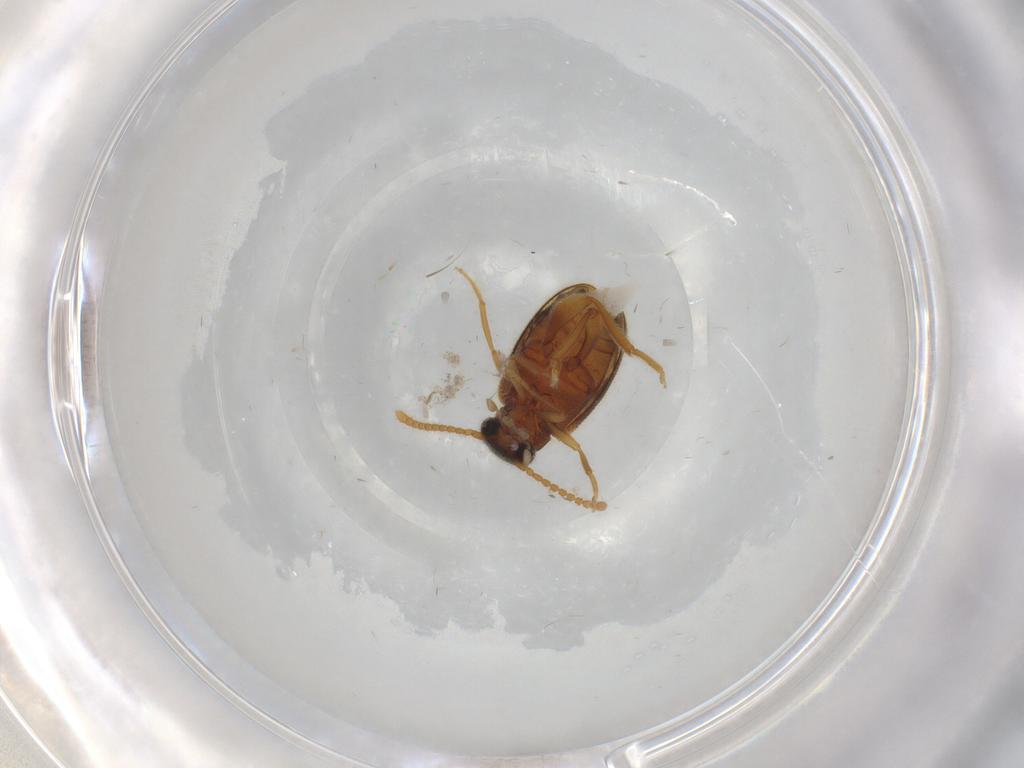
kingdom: Animalia
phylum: Arthropoda
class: Insecta
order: Coleoptera
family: Aderidae
